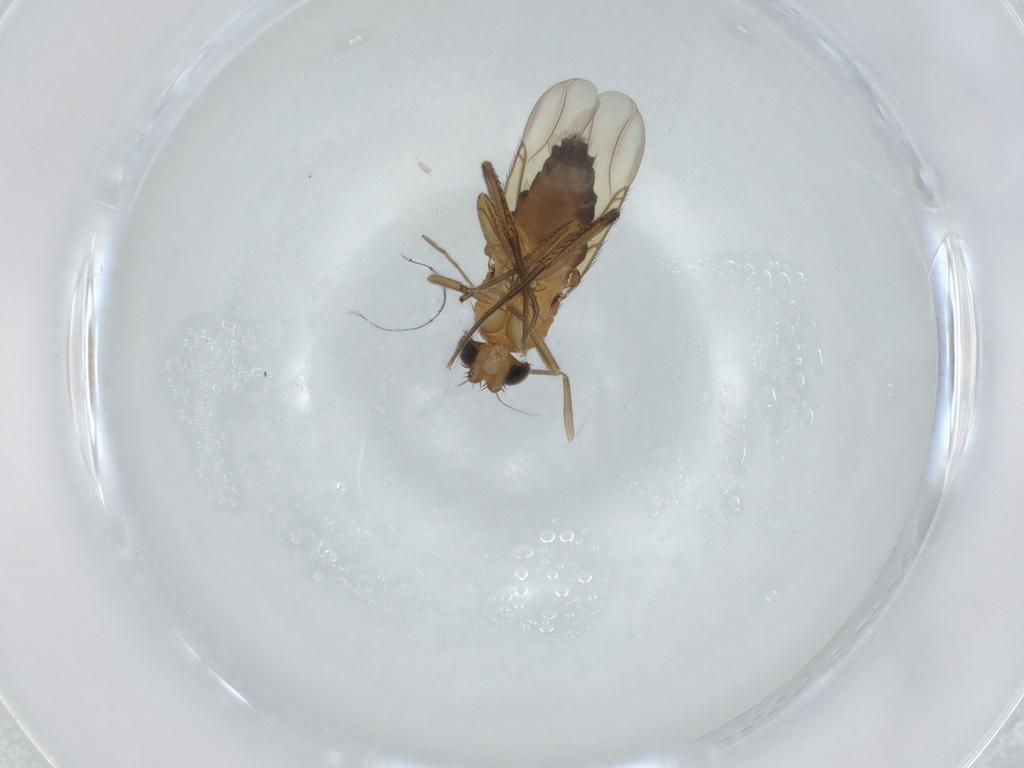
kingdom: Animalia
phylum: Arthropoda
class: Insecta
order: Diptera
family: Phoridae
